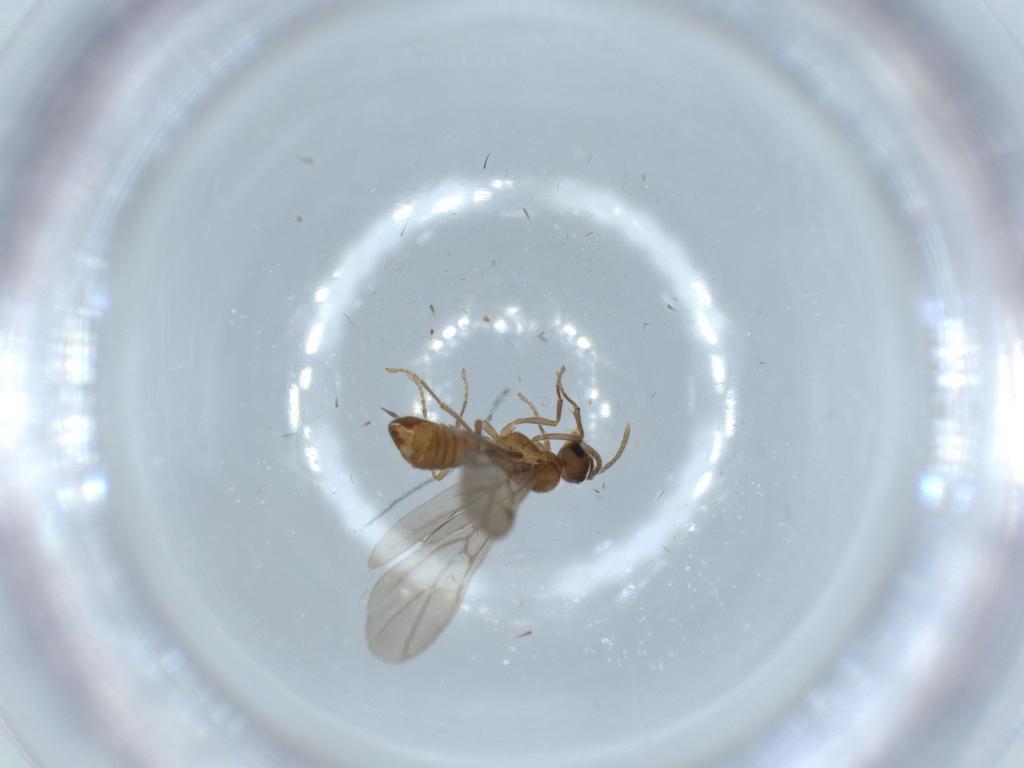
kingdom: Animalia
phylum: Arthropoda
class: Insecta
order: Hymenoptera
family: Formicidae
